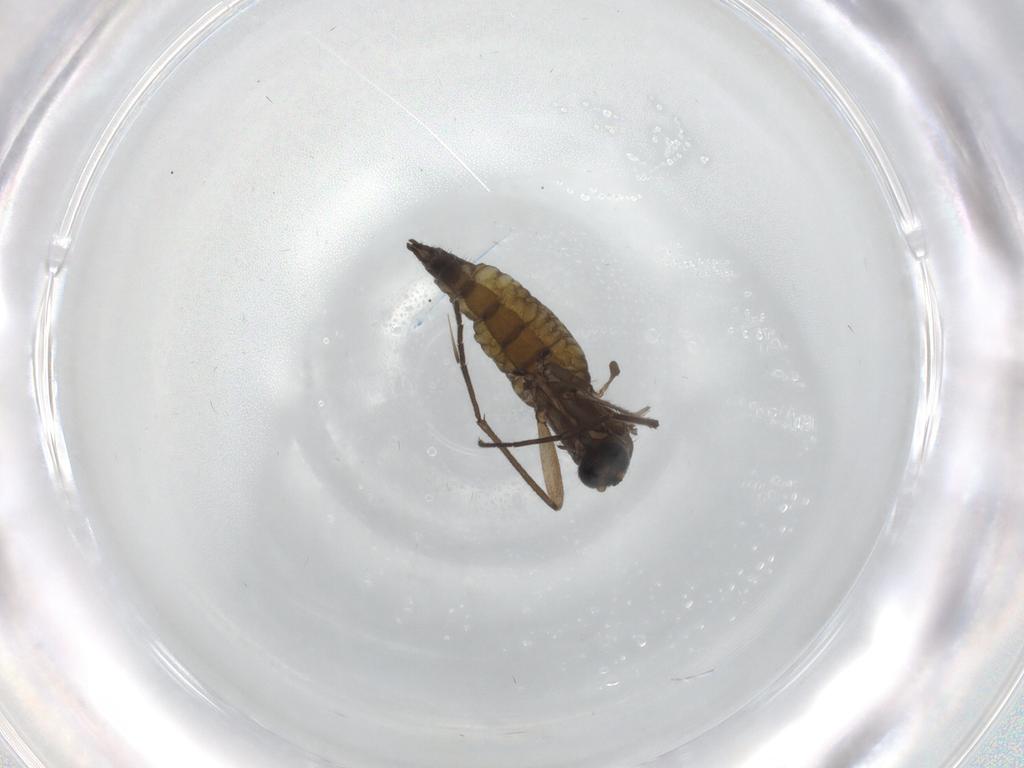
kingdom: Animalia
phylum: Arthropoda
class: Insecta
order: Diptera
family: Sciaridae
